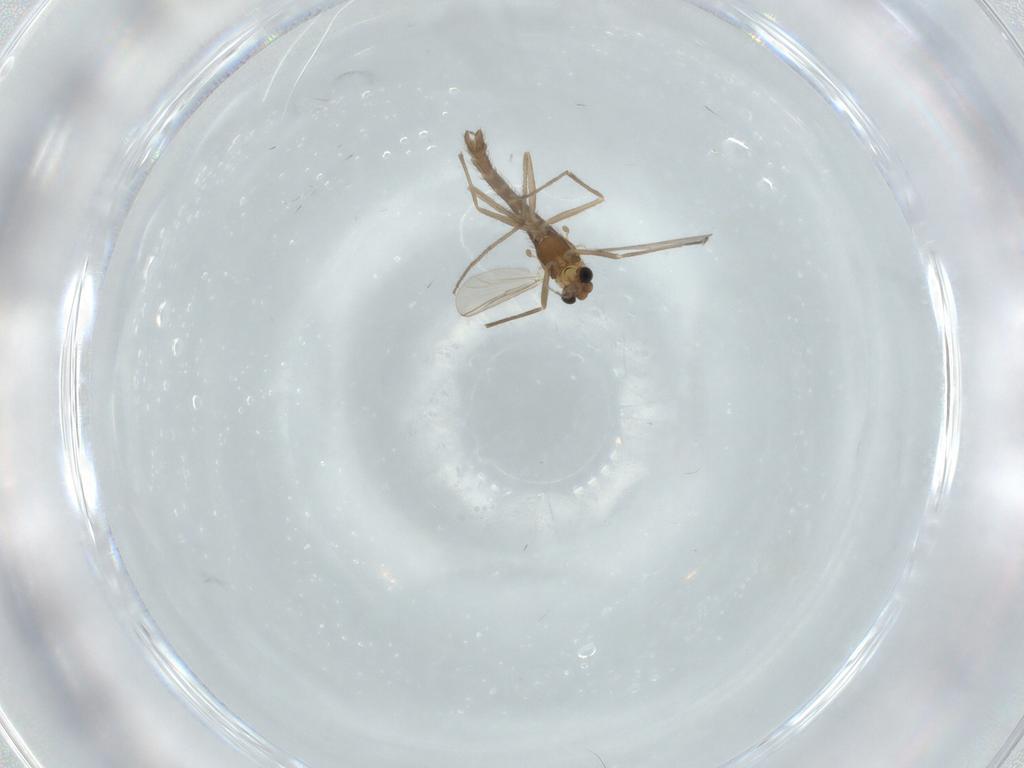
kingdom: Animalia
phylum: Arthropoda
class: Insecta
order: Diptera
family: Chironomidae
